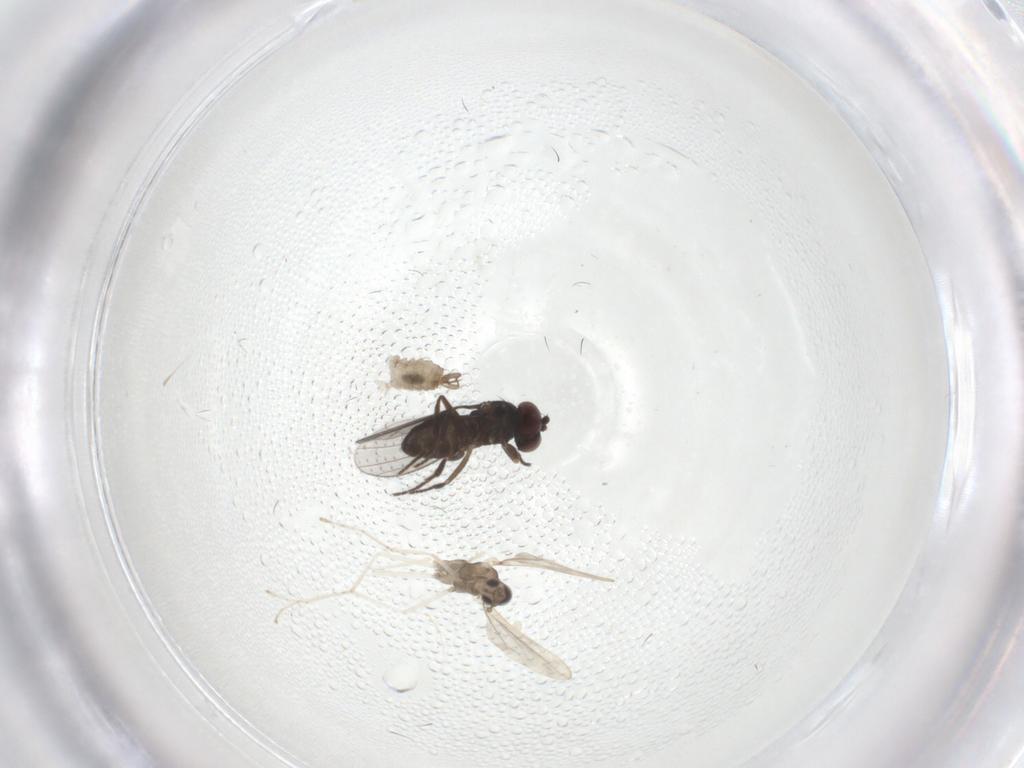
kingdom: Animalia
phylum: Arthropoda
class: Insecta
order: Diptera
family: Dolichopodidae
